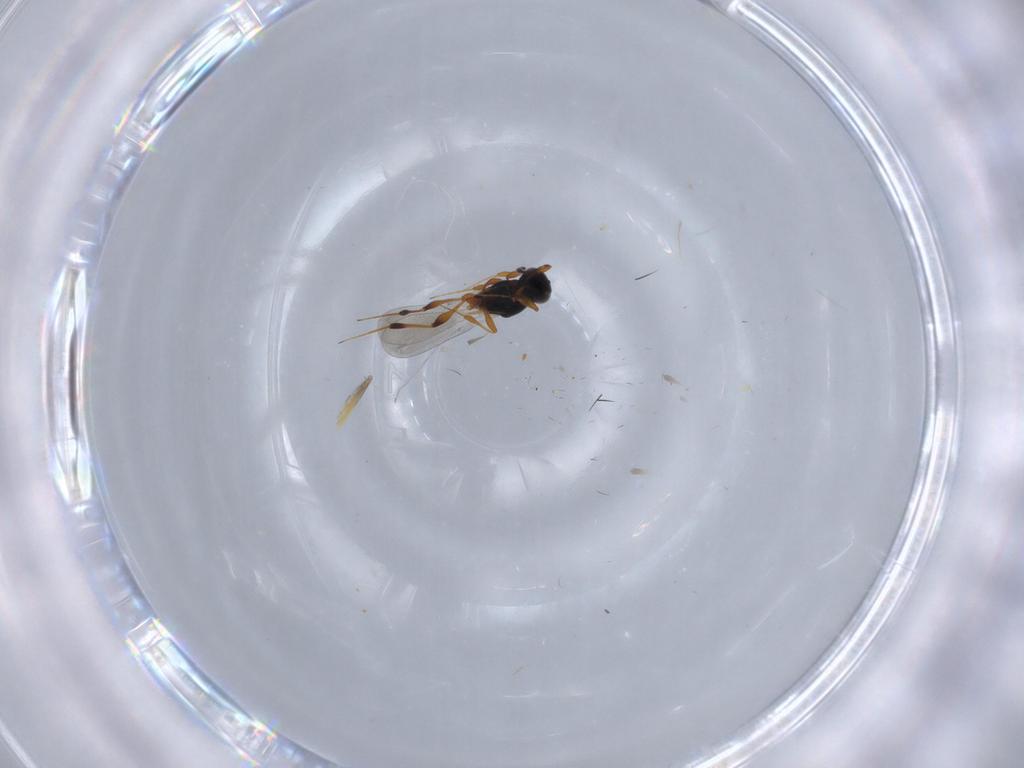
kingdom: Animalia
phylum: Arthropoda
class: Insecta
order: Hymenoptera
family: Platygastridae
